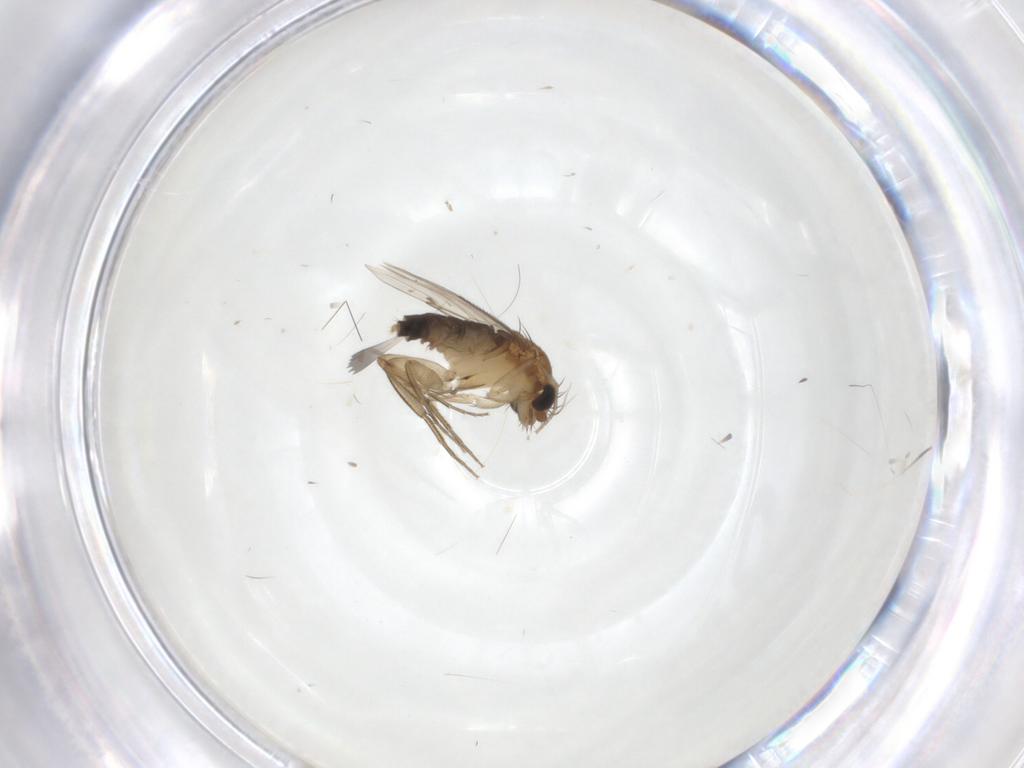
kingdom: Animalia
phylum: Arthropoda
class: Insecta
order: Diptera
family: Phoridae
